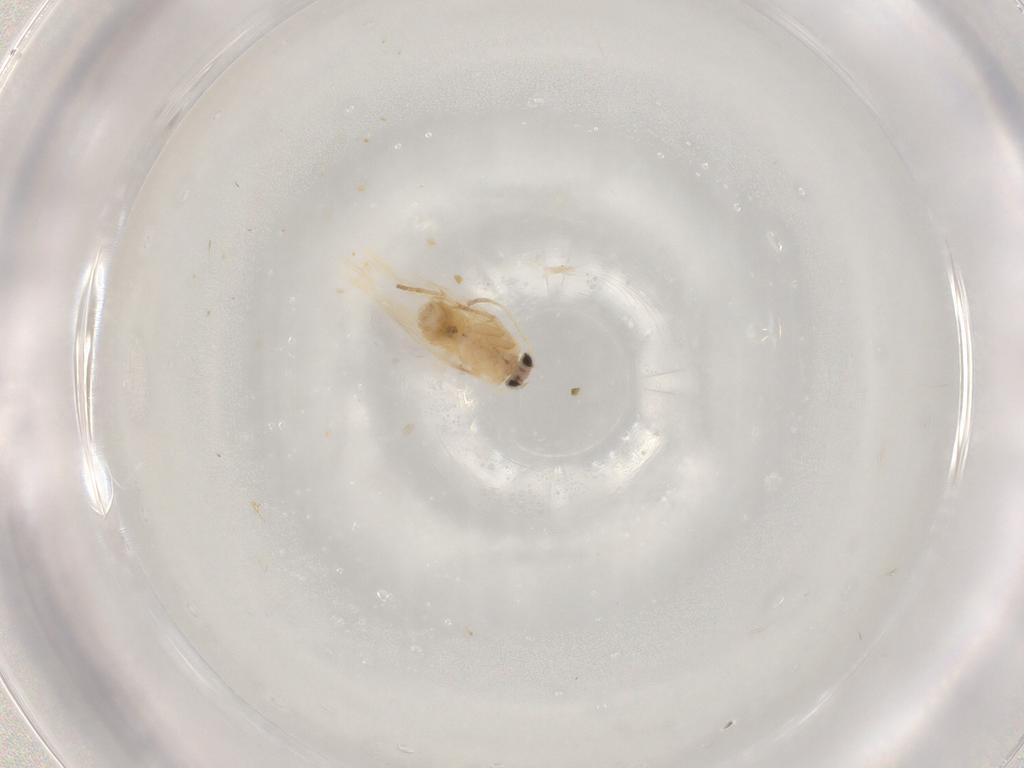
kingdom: Animalia
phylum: Arthropoda
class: Insecta
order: Lepidoptera
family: Nepticulidae
